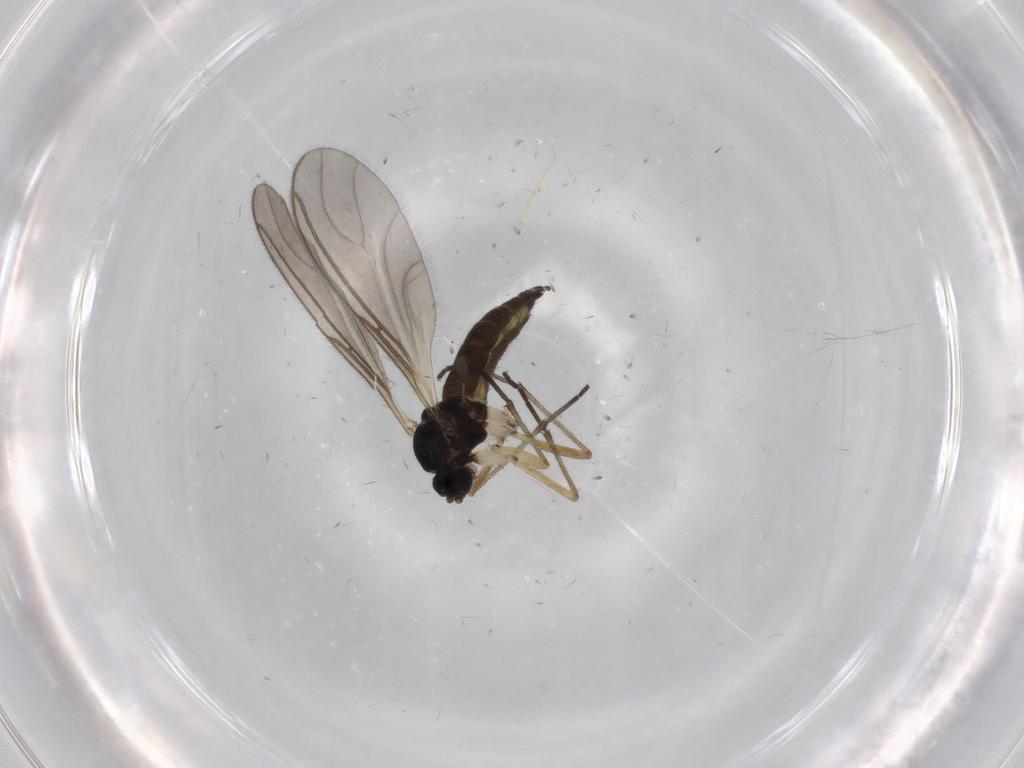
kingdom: Animalia
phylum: Arthropoda
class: Insecta
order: Diptera
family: Sciaridae
